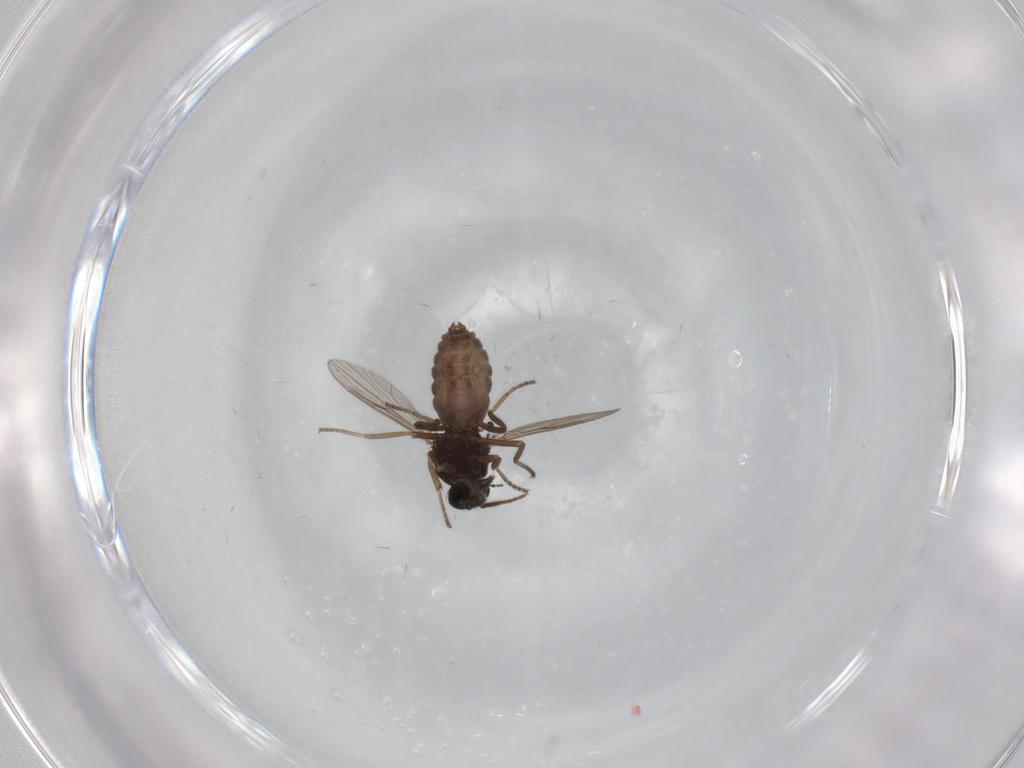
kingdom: Animalia
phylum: Arthropoda
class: Insecta
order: Diptera
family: Ceratopogonidae
